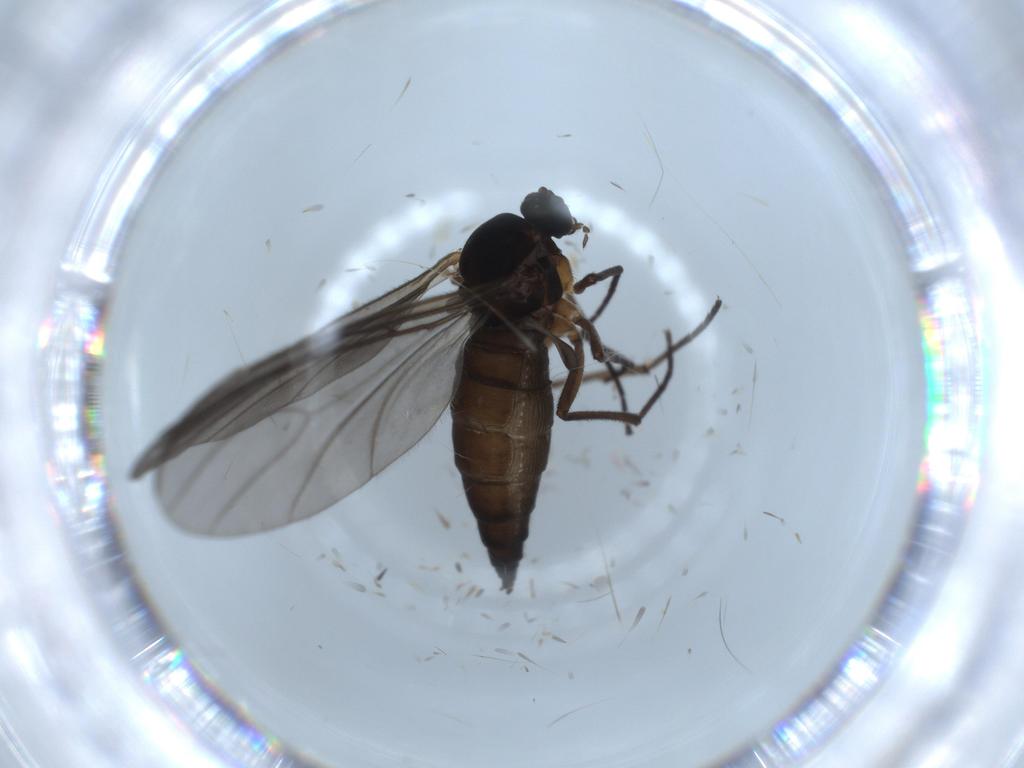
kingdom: Animalia
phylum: Arthropoda
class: Insecta
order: Diptera
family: Sciaridae
